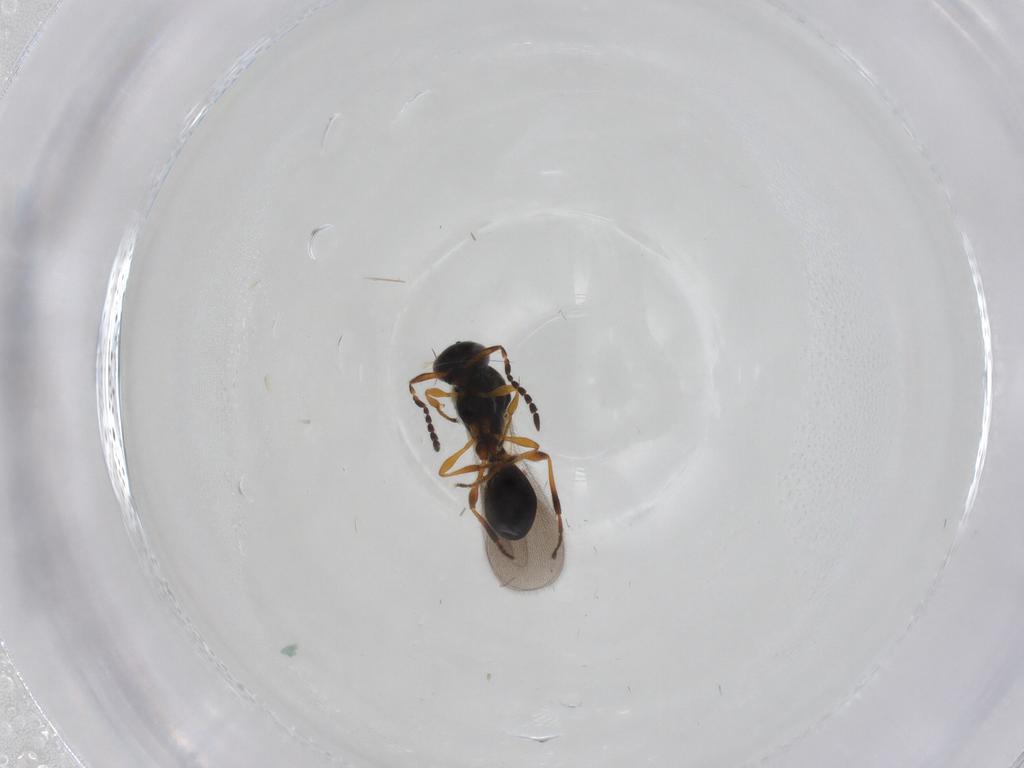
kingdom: Animalia
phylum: Arthropoda
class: Insecta
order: Hymenoptera
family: Platygastridae
